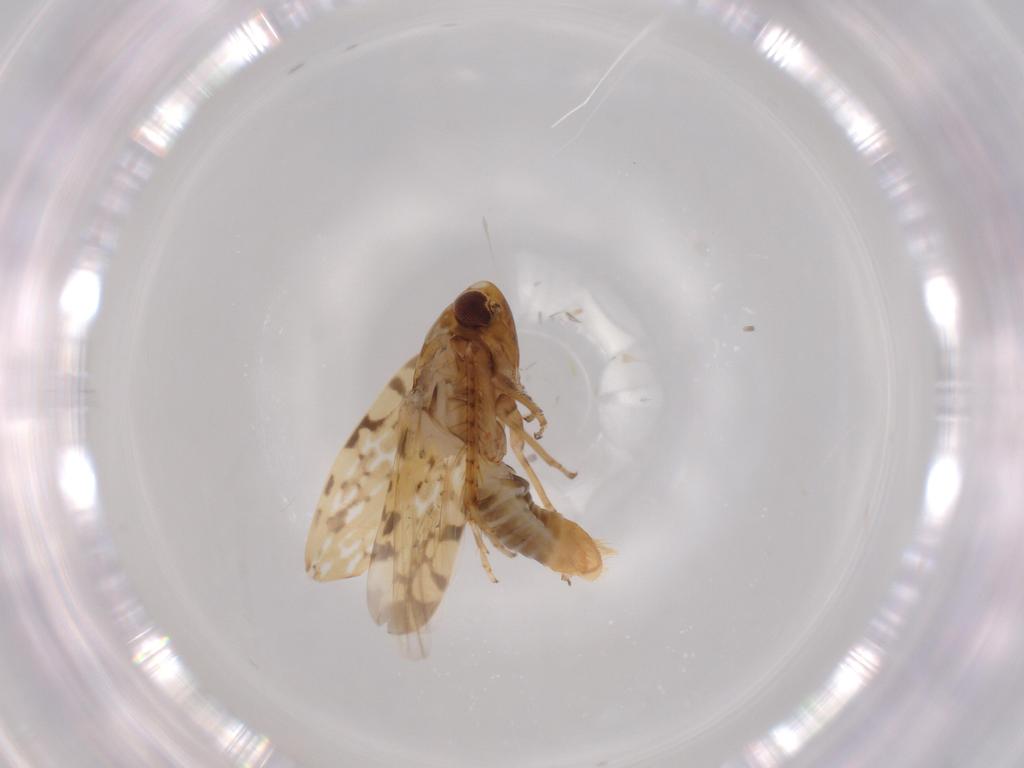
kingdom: Animalia
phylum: Arthropoda
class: Insecta
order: Hemiptera
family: Cicadellidae
